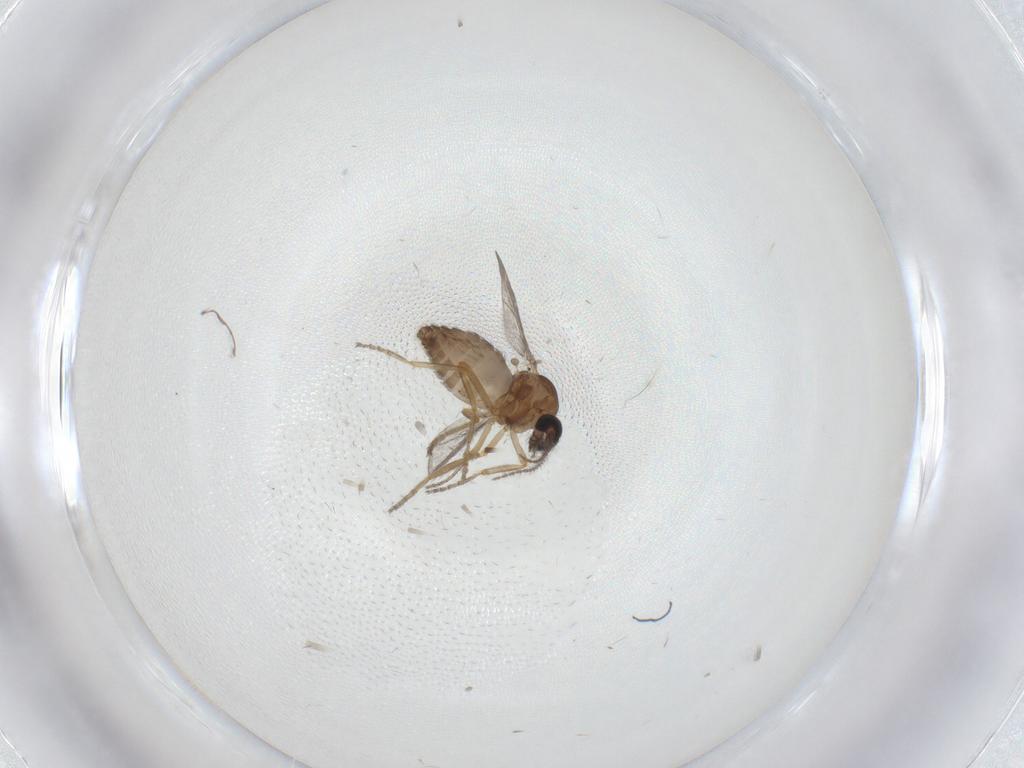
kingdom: Animalia
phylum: Arthropoda
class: Insecta
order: Diptera
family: Ceratopogonidae
